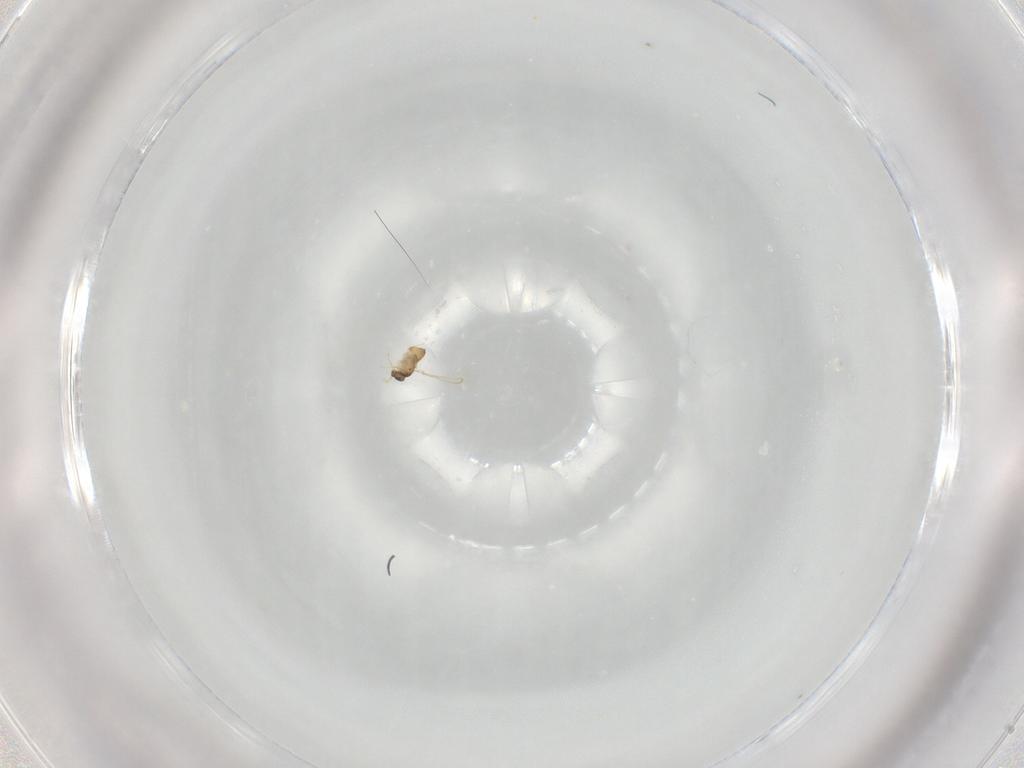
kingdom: Animalia
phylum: Arthropoda
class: Insecta
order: Hymenoptera
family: Mymaridae
